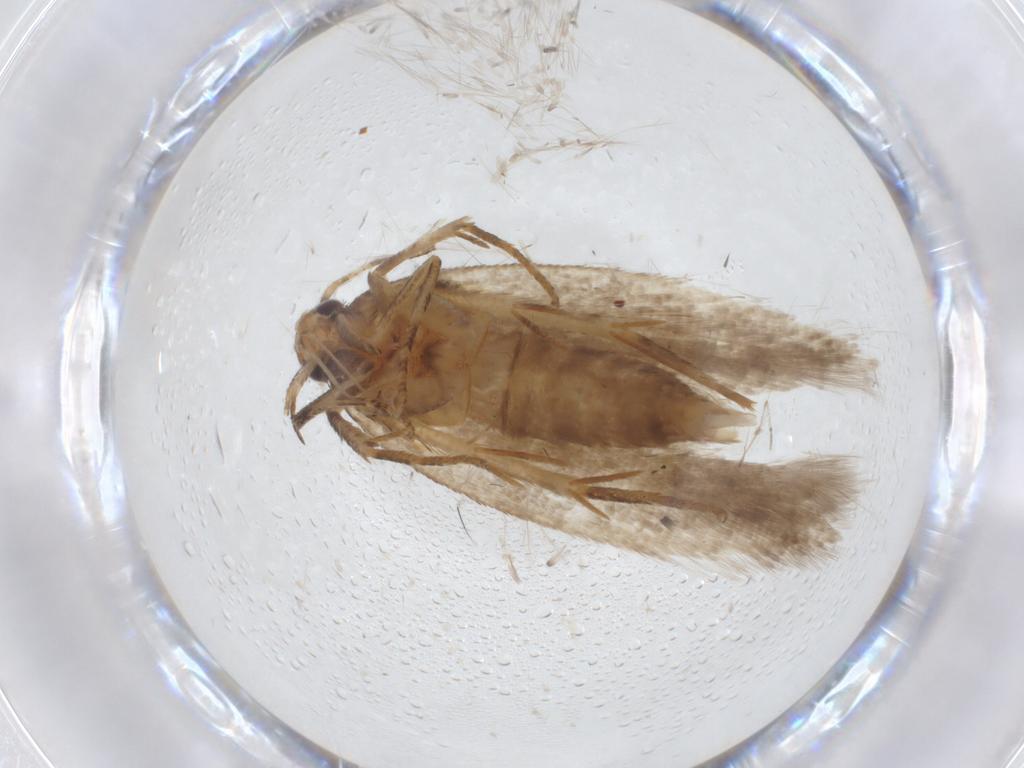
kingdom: Animalia
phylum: Arthropoda
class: Insecta
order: Lepidoptera
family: Gelechiidae
